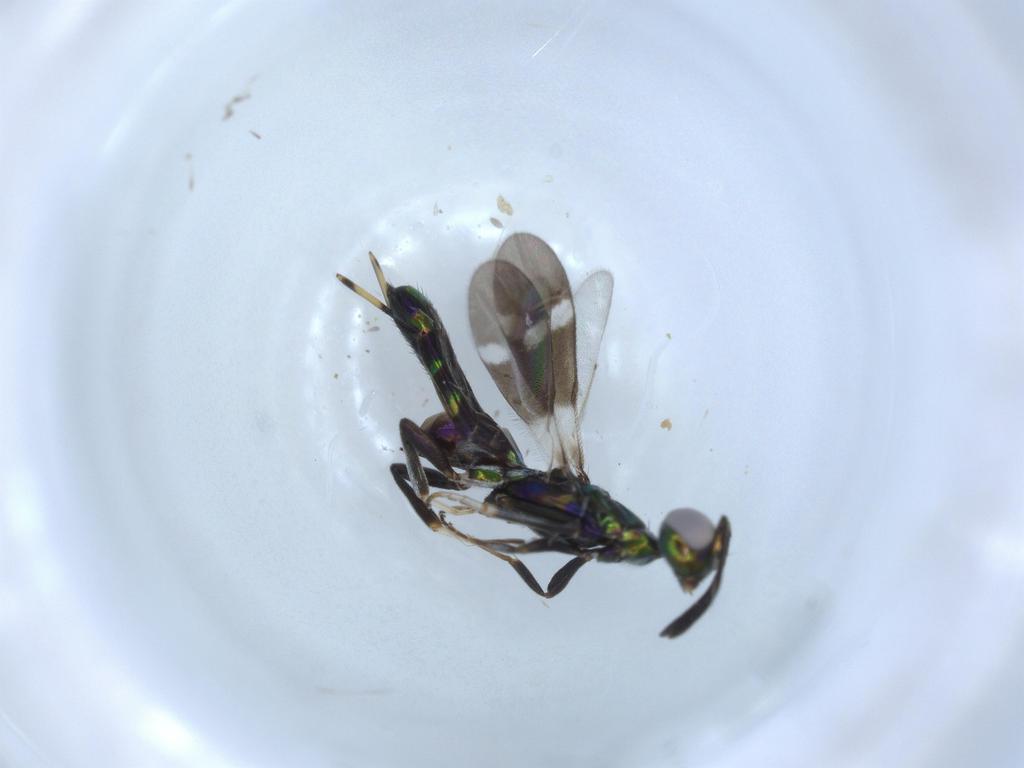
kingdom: Animalia
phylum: Arthropoda
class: Insecta
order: Hymenoptera
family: Eupelmidae
